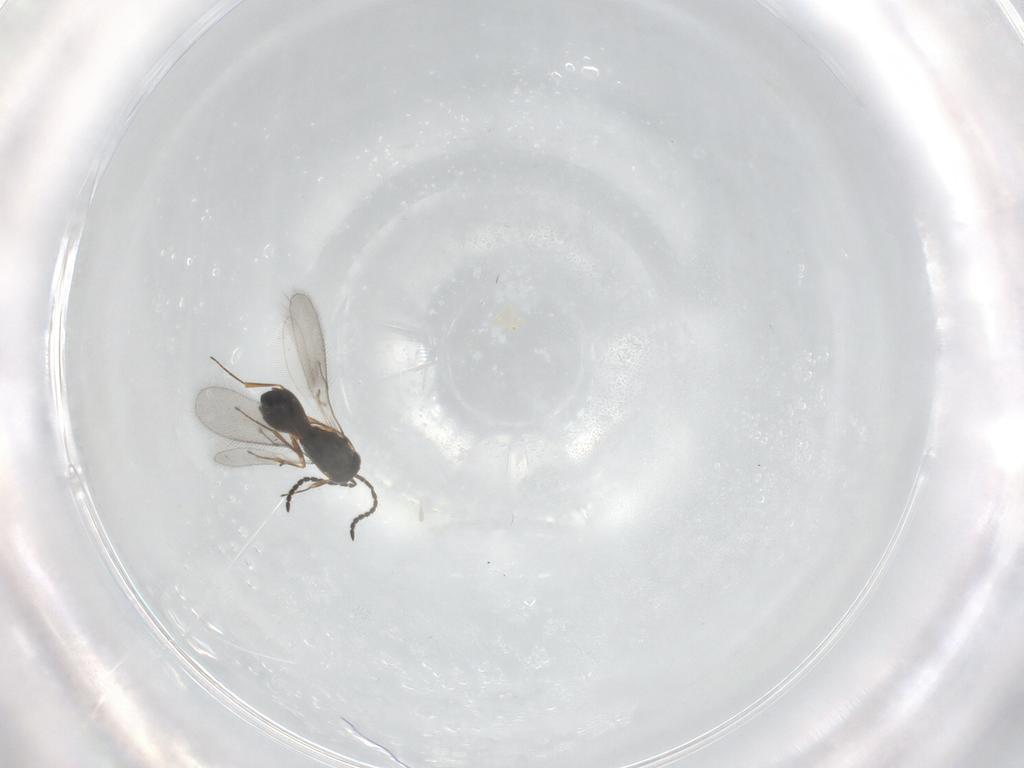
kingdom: Animalia
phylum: Arthropoda
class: Insecta
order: Hymenoptera
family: Scelionidae
